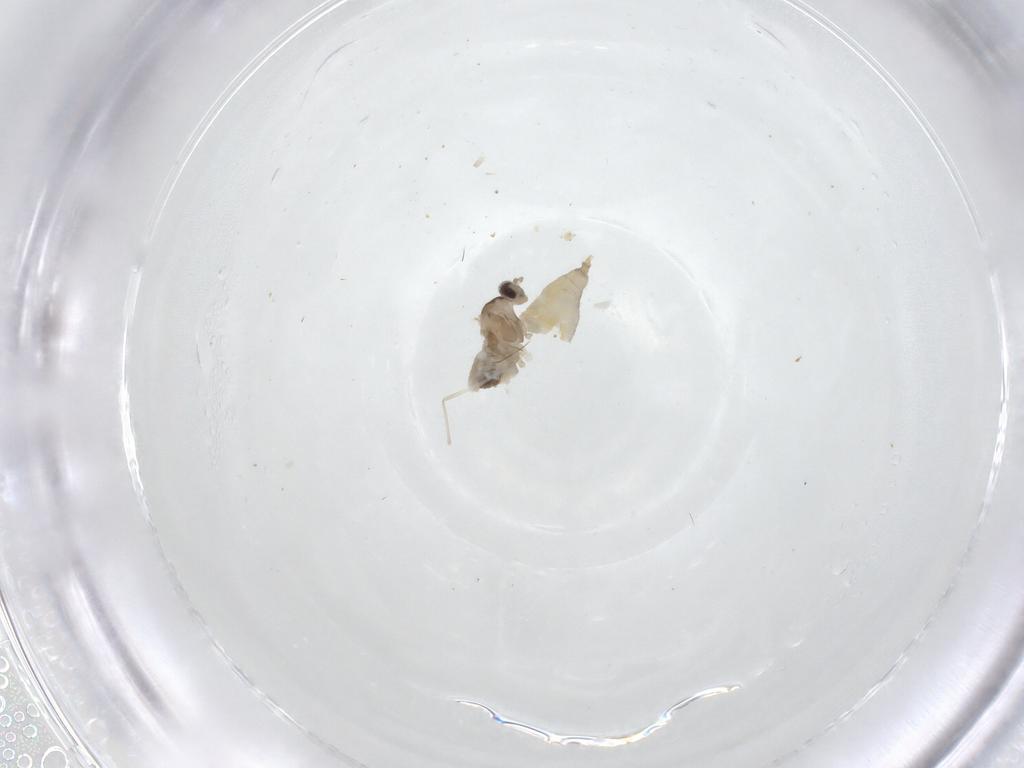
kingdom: Animalia
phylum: Arthropoda
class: Insecta
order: Diptera
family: Cecidomyiidae
